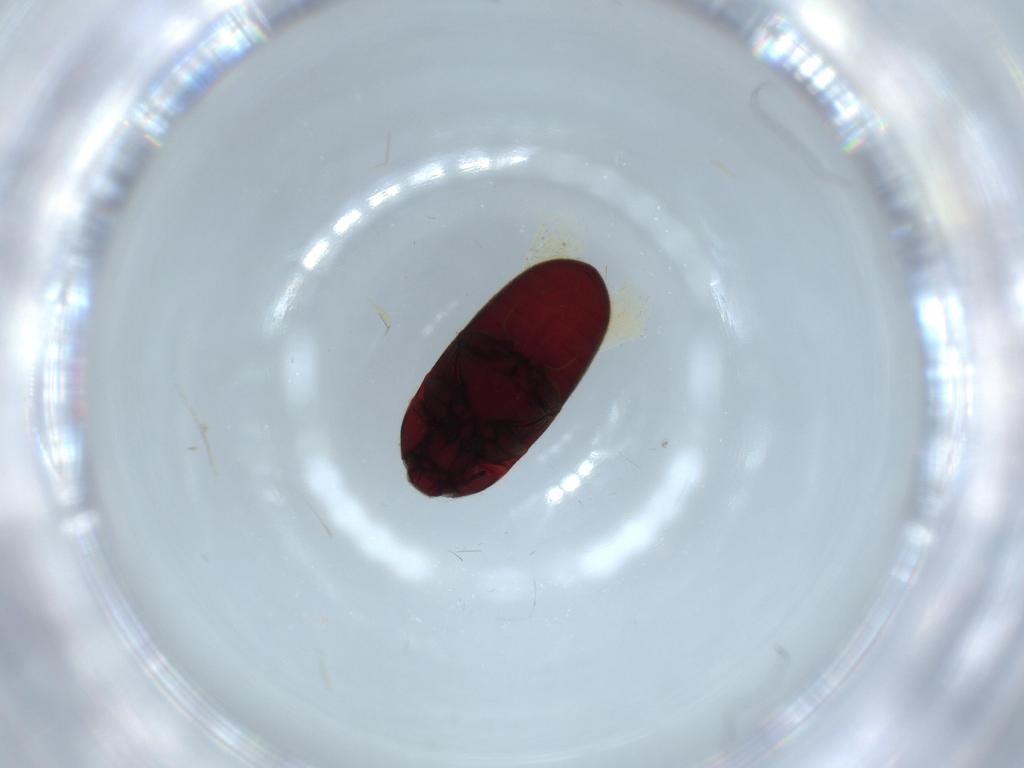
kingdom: Animalia
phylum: Arthropoda
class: Insecta
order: Coleoptera
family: Throscidae
